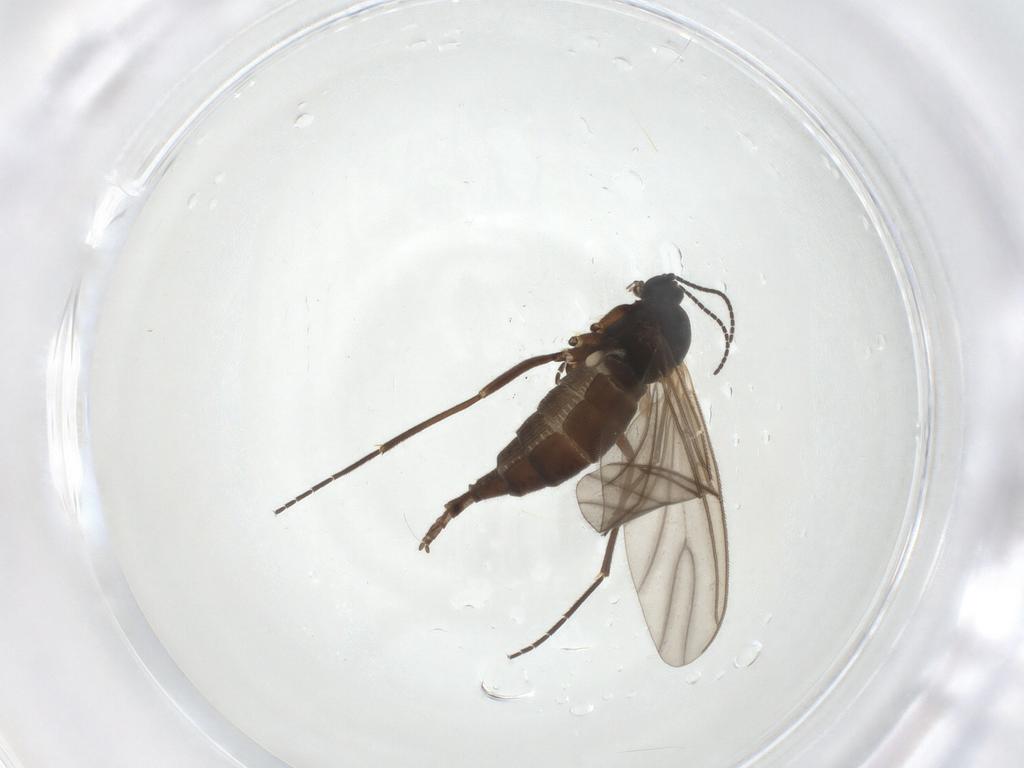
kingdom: Animalia
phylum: Arthropoda
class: Insecta
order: Diptera
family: Sciaridae
